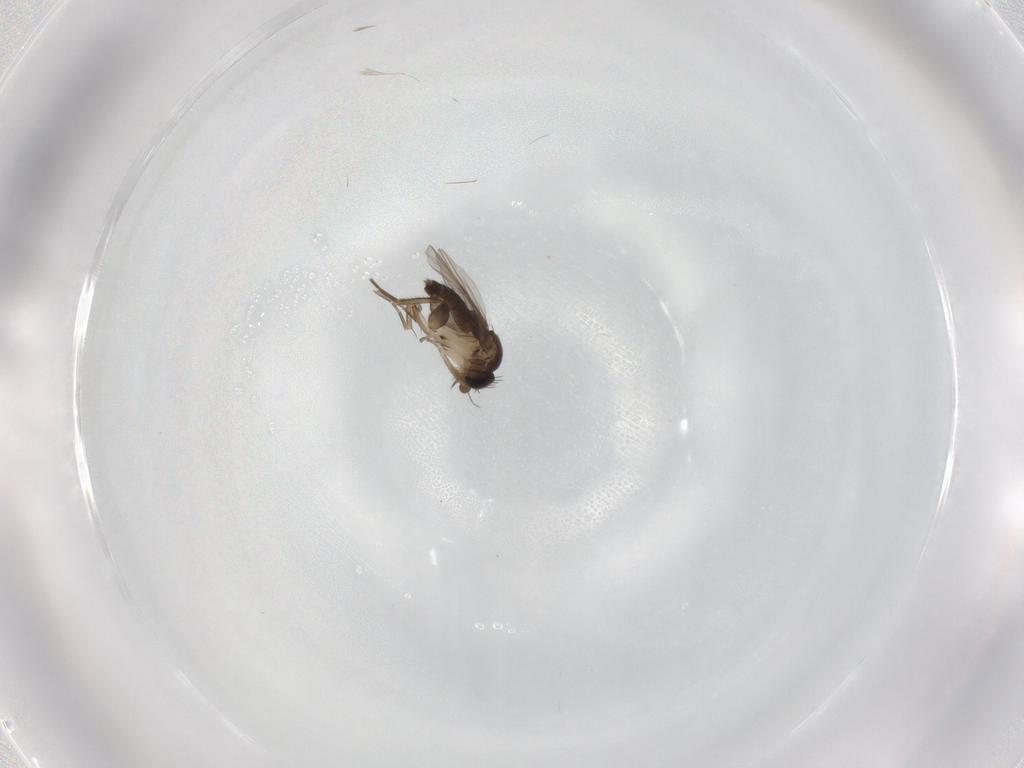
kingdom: Animalia
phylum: Arthropoda
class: Insecta
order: Diptera
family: Phoridae
